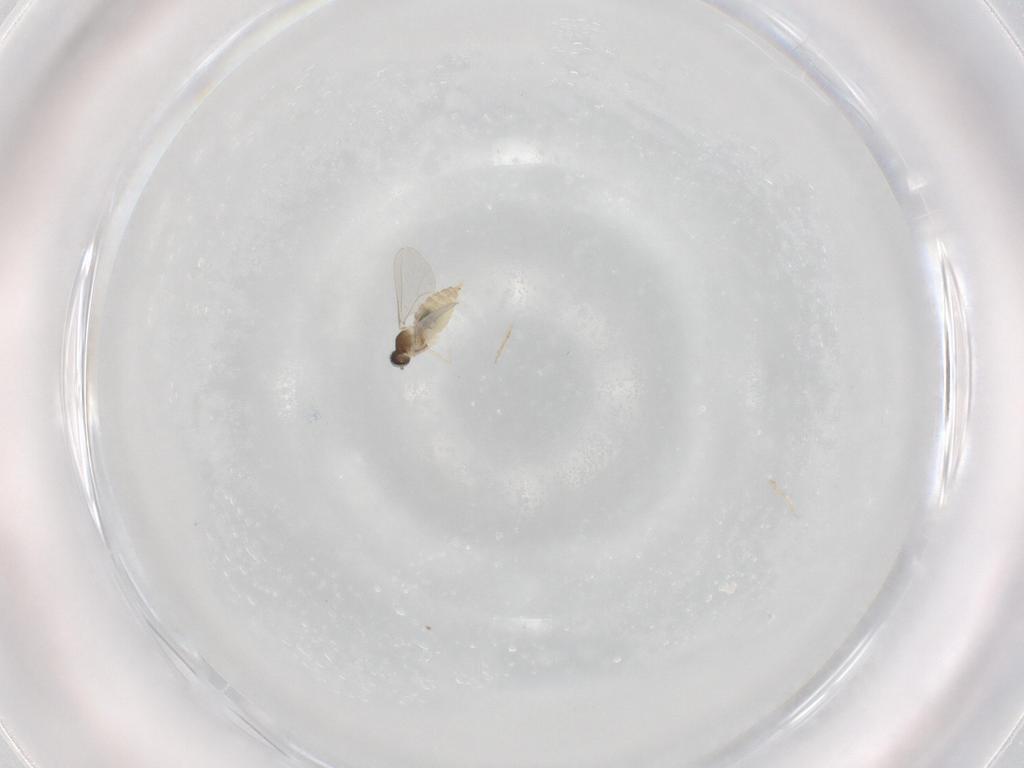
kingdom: Animalia
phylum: Arthropoda
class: Insecta
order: Diptera
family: Cecidomyiidae
